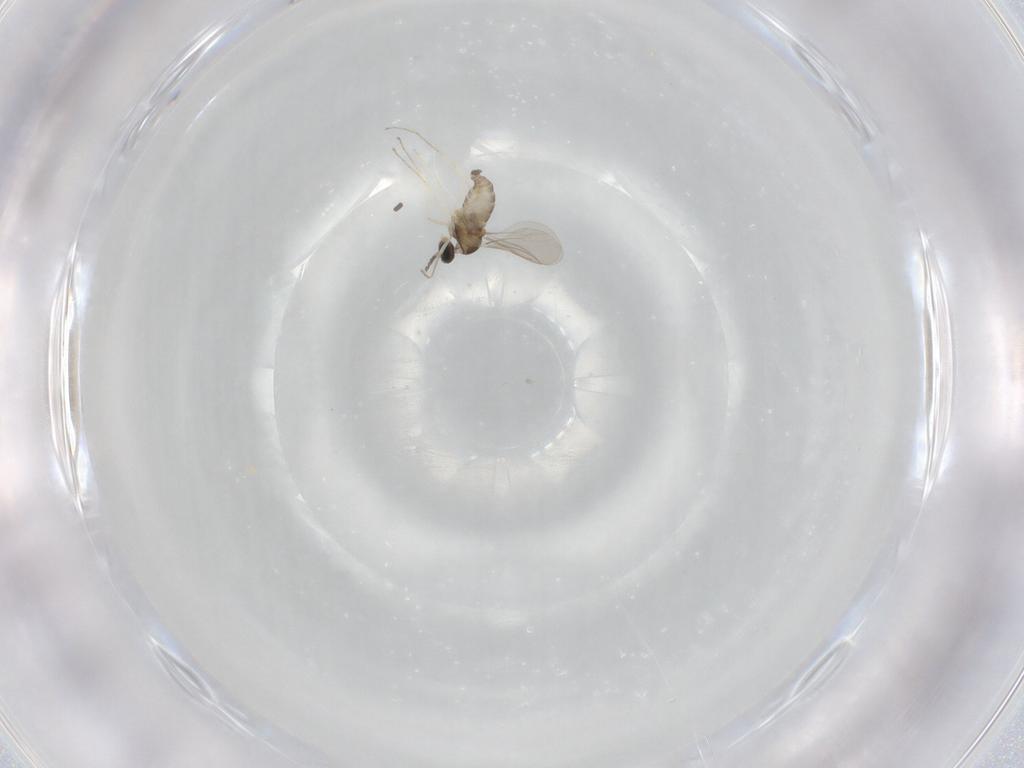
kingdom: Animalia
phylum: Arthropoda
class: Insecta
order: Diptera
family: Cecidomyiidae
